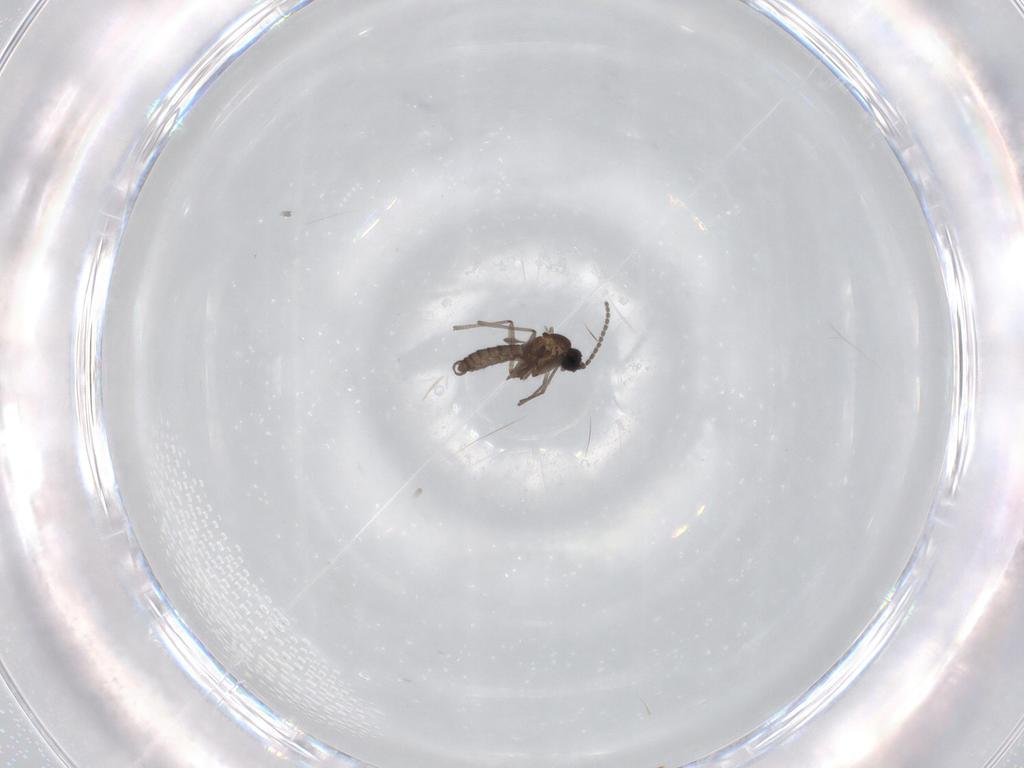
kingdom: Animalia
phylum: Arthropoda
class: Insecta
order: Diptera
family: Sciaridae
